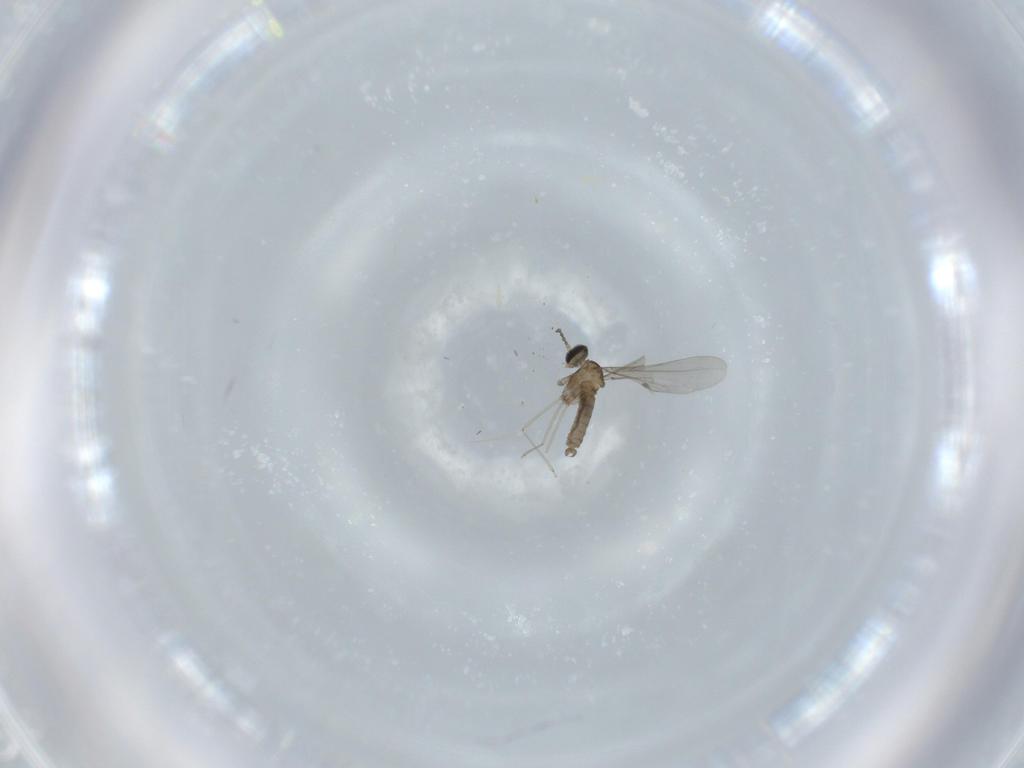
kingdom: Animalia
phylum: Arthropoda
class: Insecta
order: Diptera
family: Cecidomyiidae
